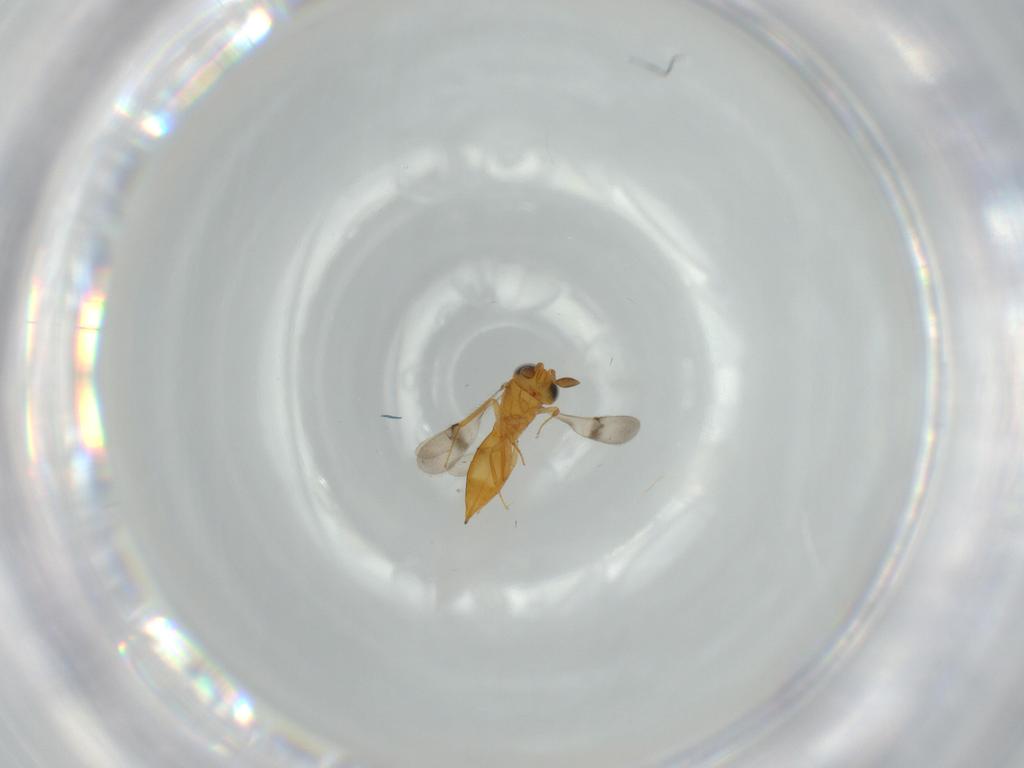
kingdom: Animalia
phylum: Arthropoda
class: Insecta
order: Hymenoptera
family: Scelionidae
